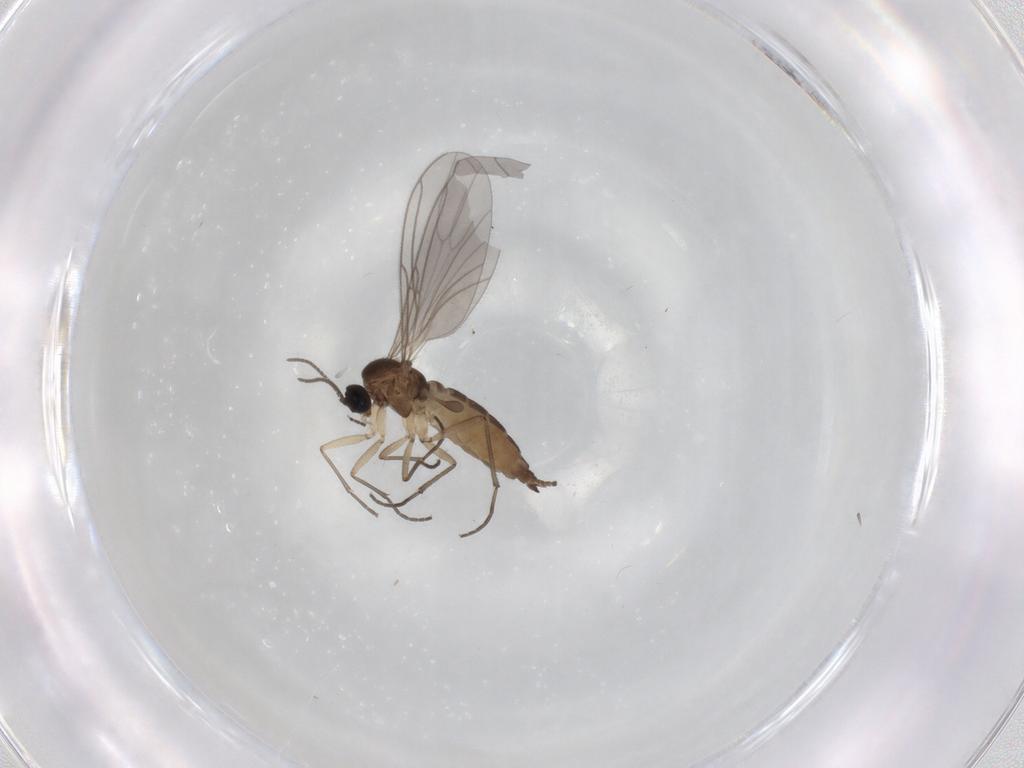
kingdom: Animalia
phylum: Arthropoda
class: Insecta
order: Diptera
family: Sciaridae
